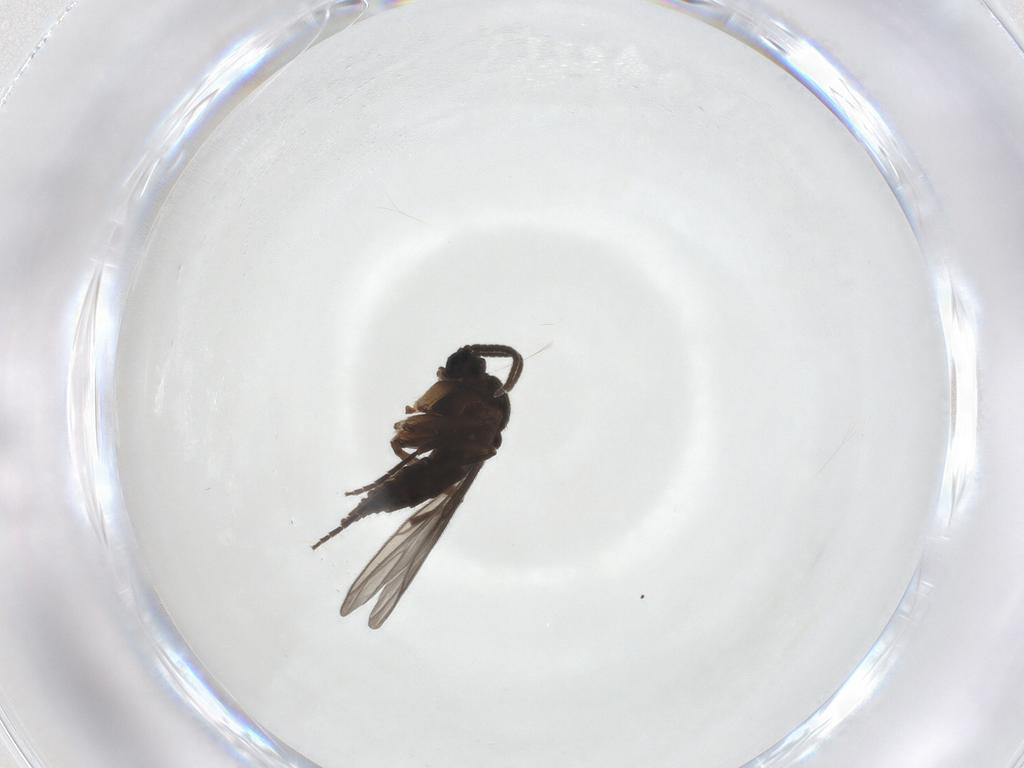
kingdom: Animalia
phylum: Arthropoda
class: Insecta
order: Diptera
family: Sciaridae
